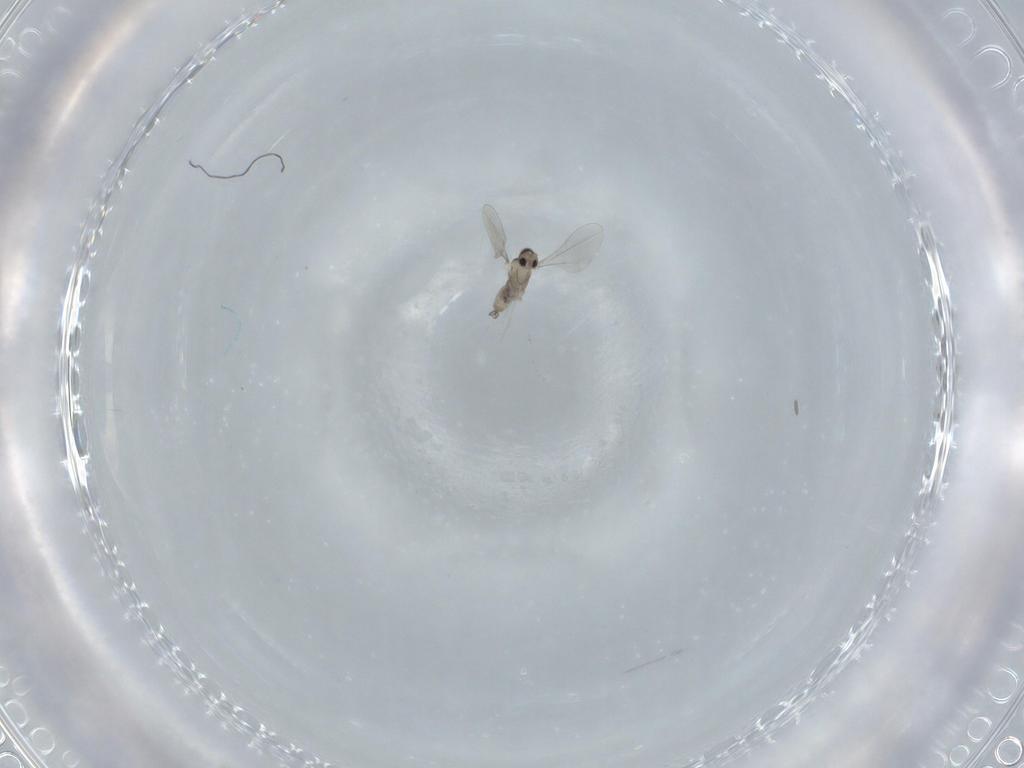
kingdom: Animalia
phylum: Arthropoda
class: Insecta
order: Diptera
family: Cecidomyiidae
